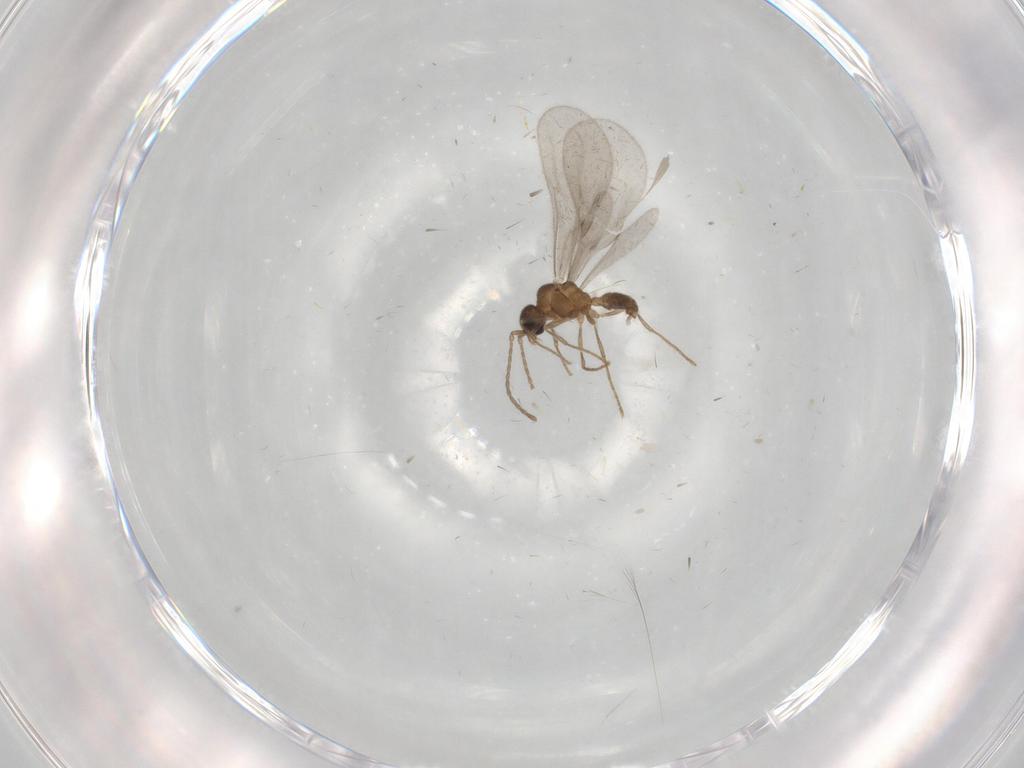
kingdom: Animalia
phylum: Arthropoda
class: Insecta
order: Hymenoptera
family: Formicidae
